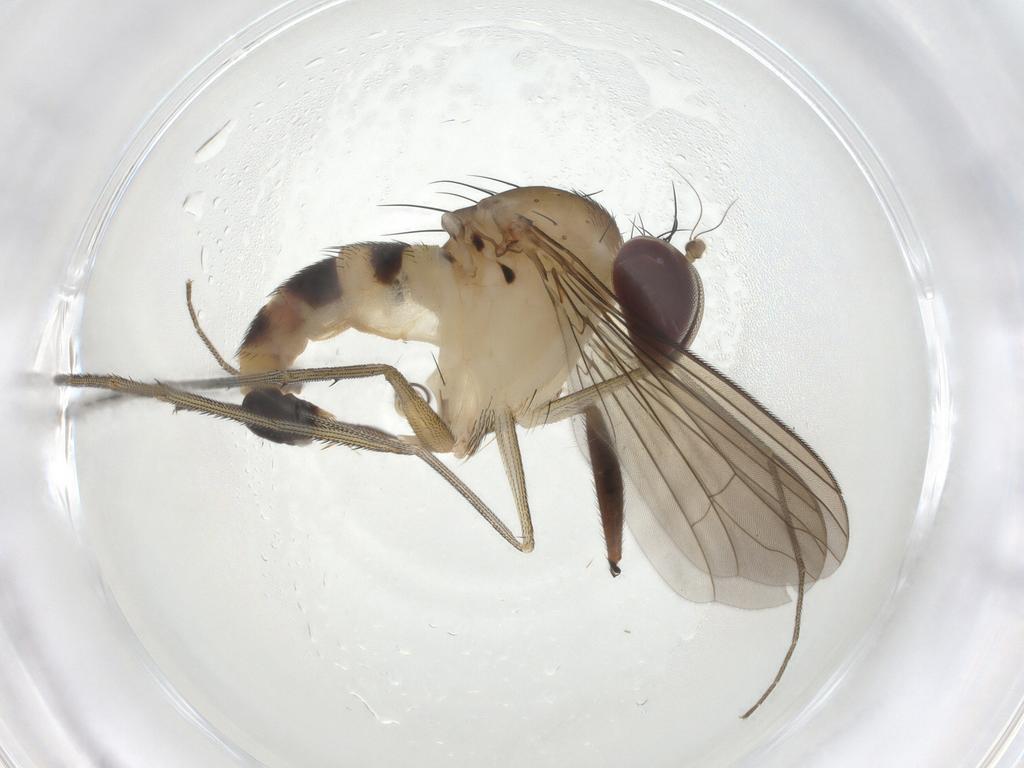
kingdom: Animalia
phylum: Arthropoda
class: Insecta
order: Diptera
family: Dolichopodidae
